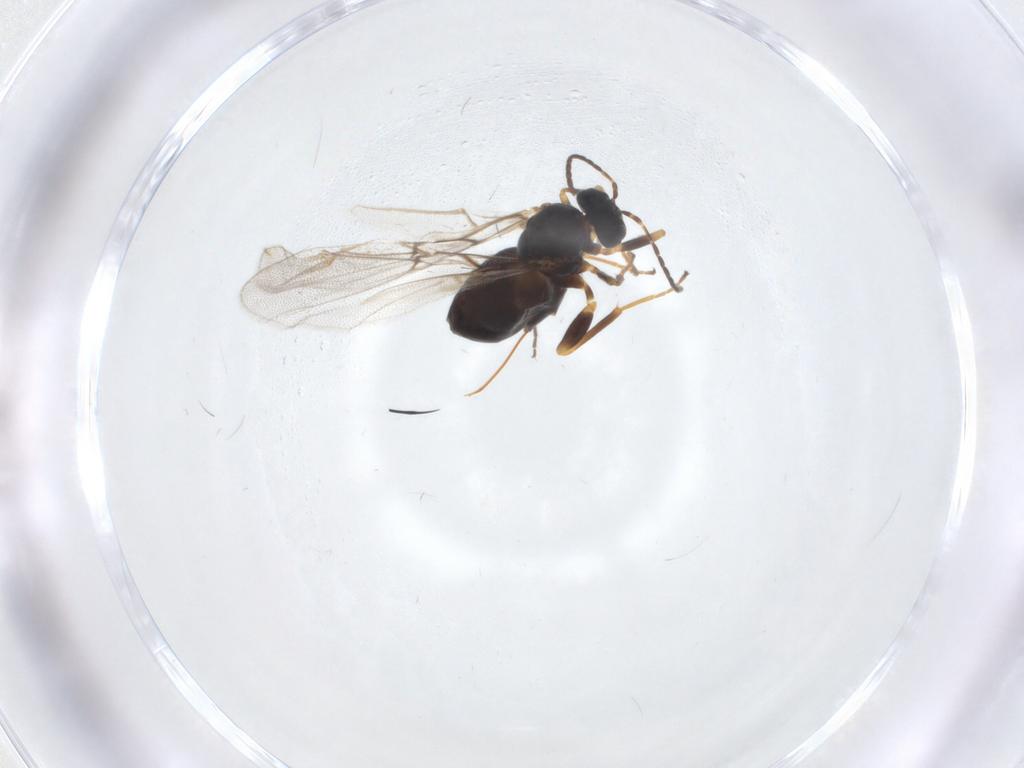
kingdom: Animalia
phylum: Arthropoda
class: Insecta
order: Hymenoptera
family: Cynipidae
